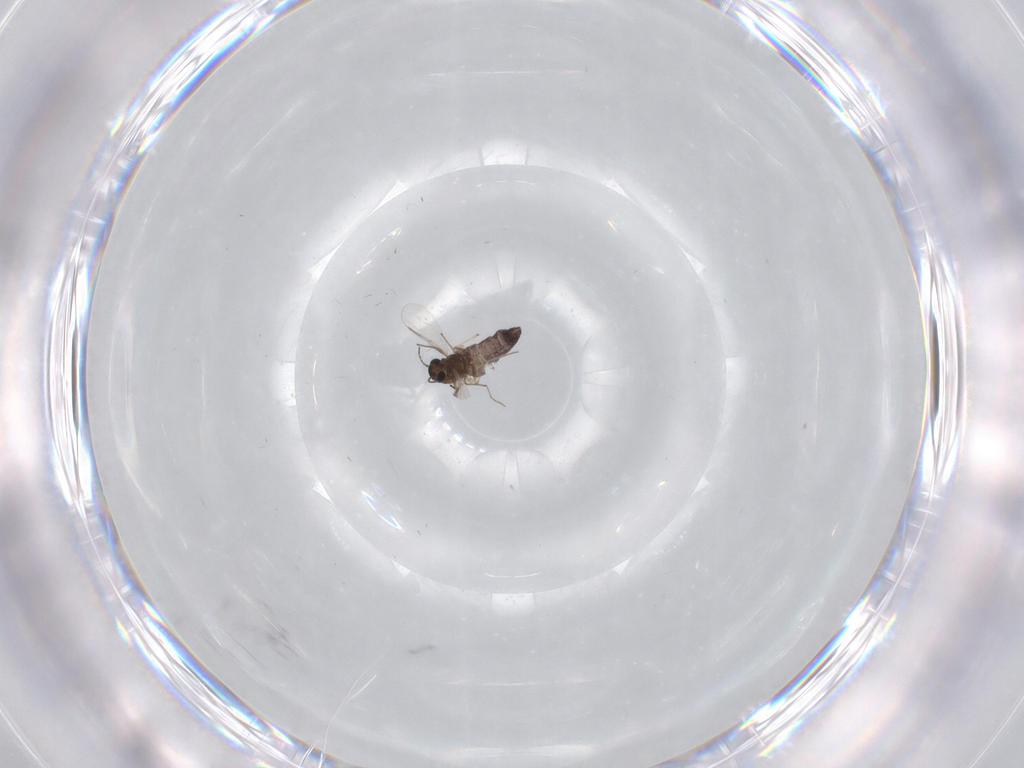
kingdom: Animalia
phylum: Arthropoda
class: Insecta
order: Diptera
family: Chironomidae
